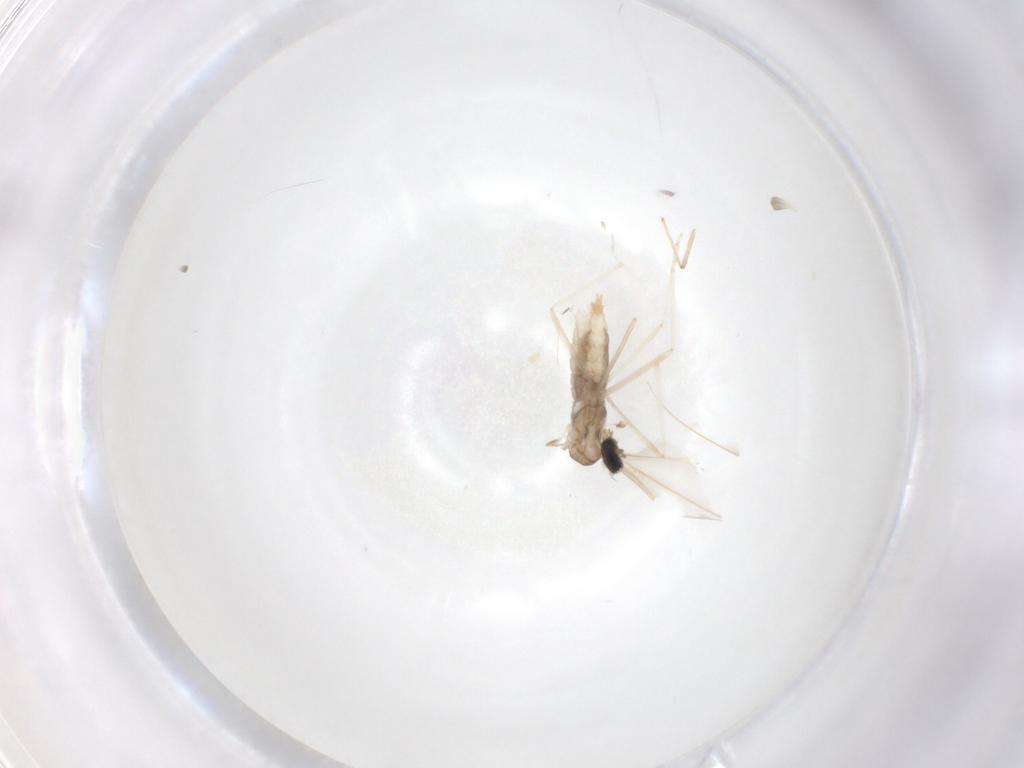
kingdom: Animalia
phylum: Arthropoda
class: Insecta
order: Diptera
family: Cecidomyiidae
